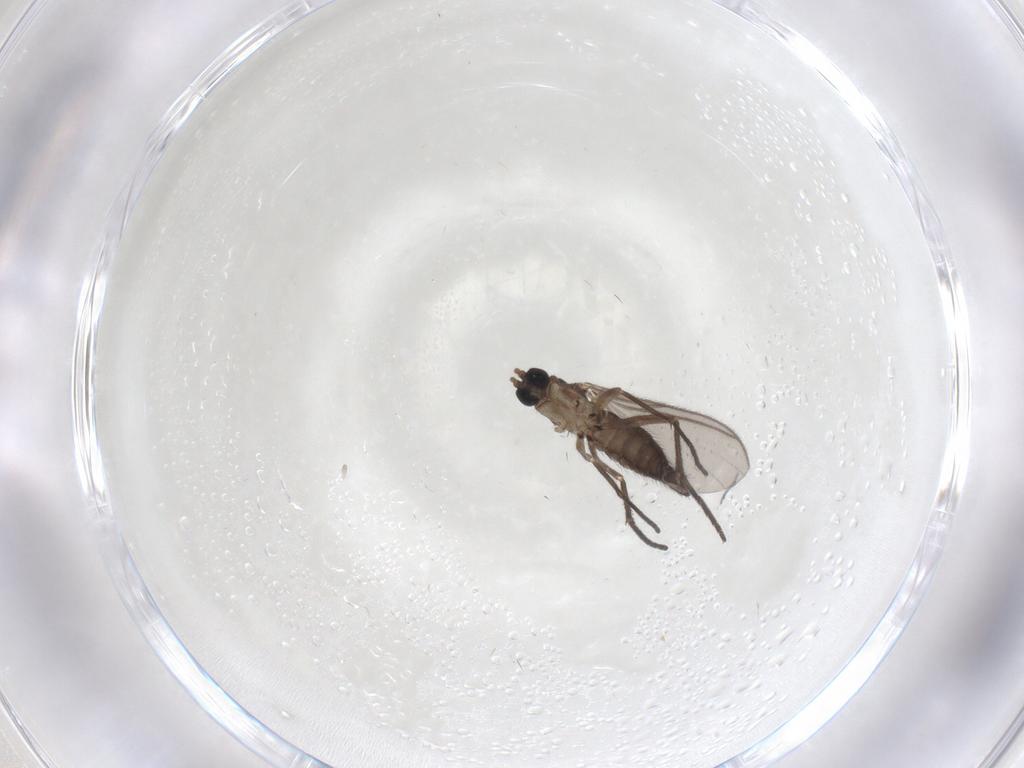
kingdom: Animalia
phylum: Arthropoda
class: Insecta
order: Diptera
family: Sciaridae
